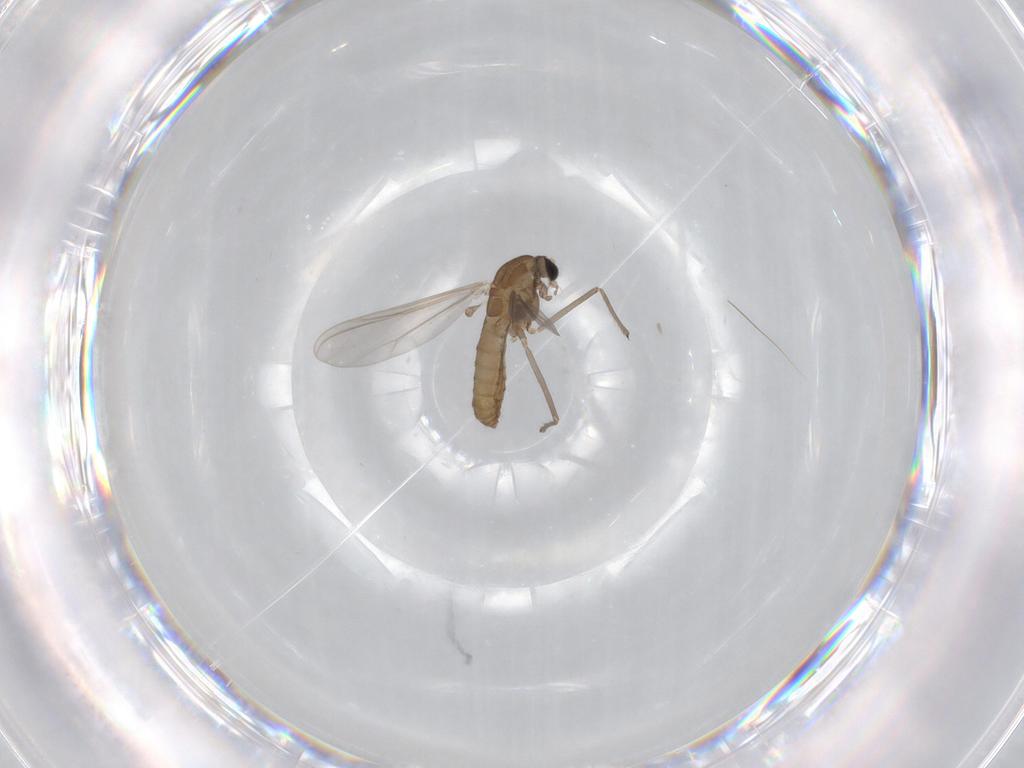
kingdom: Animalia
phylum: Arthropoda
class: Insecta
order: Diptera
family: Chironomidae
